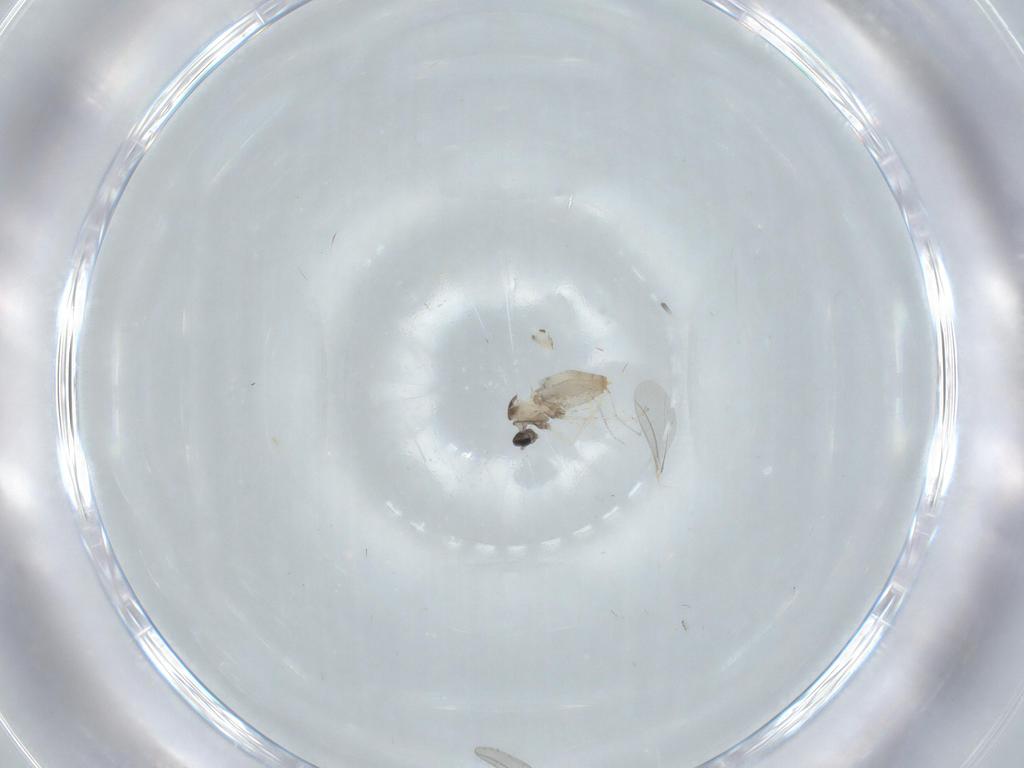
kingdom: Animalia
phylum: Arthropoda
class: Insecta
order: Diptera
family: Cecidomyiidae
